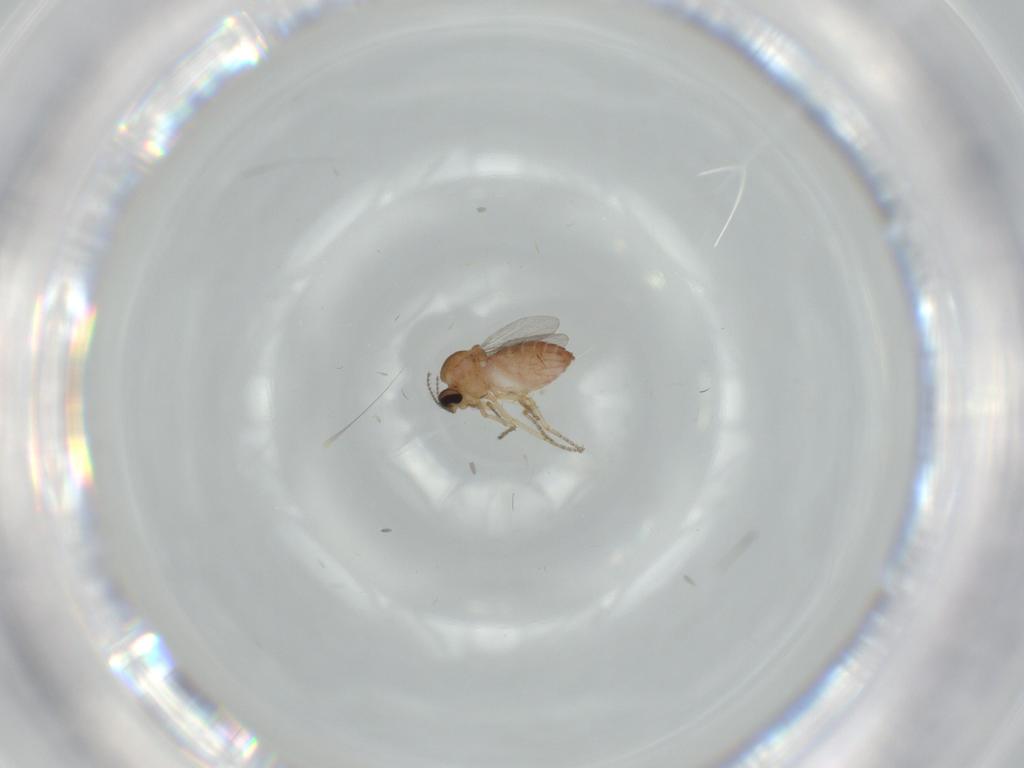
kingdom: Animalia
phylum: Arthropoda
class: Insecta
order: Diptera
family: Ceratopogonidae
